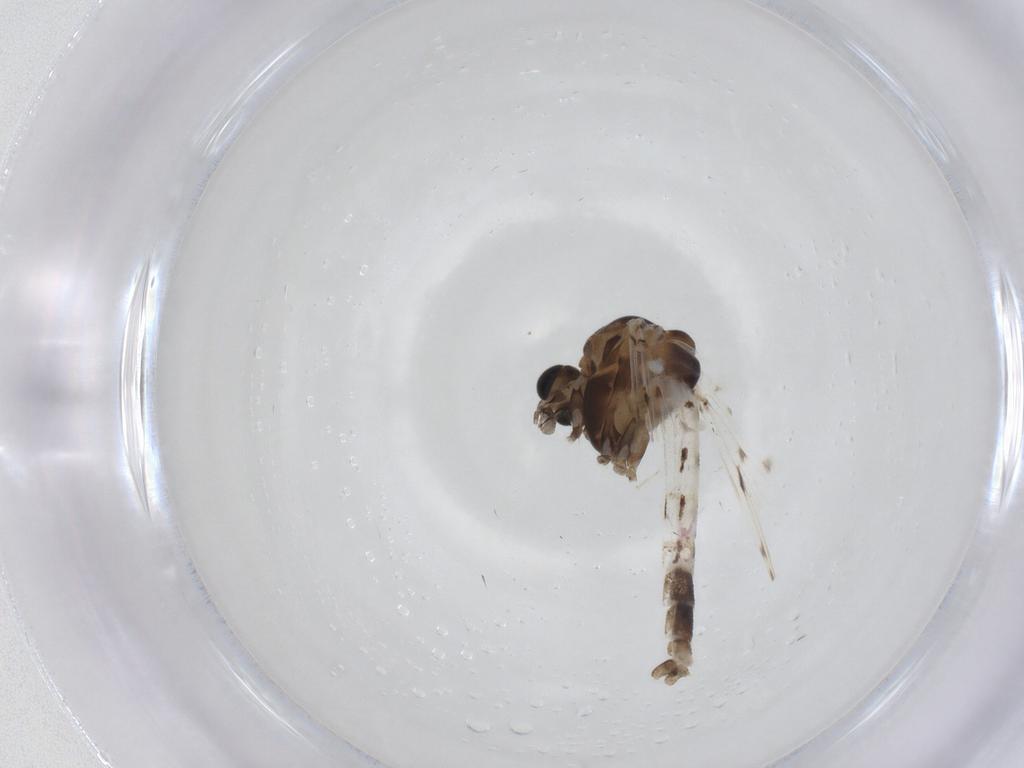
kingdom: Animalia
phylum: Arthropoda
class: Insecta
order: Diptera
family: Chironomidae
